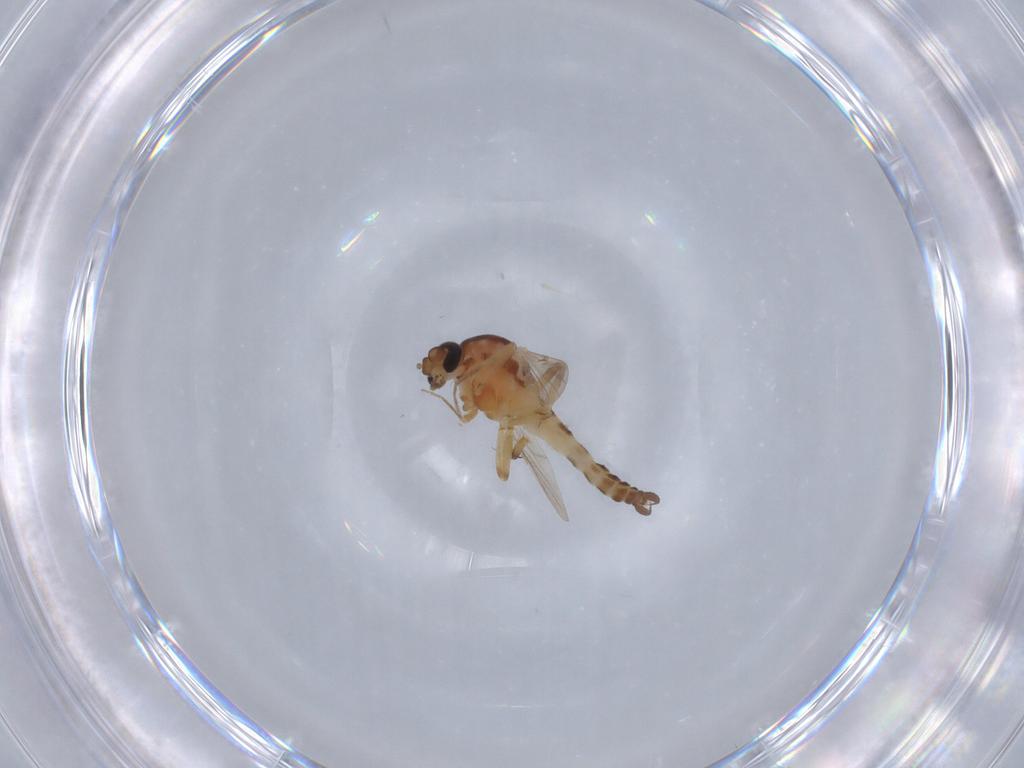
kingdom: Animalia
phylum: Arthropoda
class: Insecta
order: Diptera
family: Psychodidae
